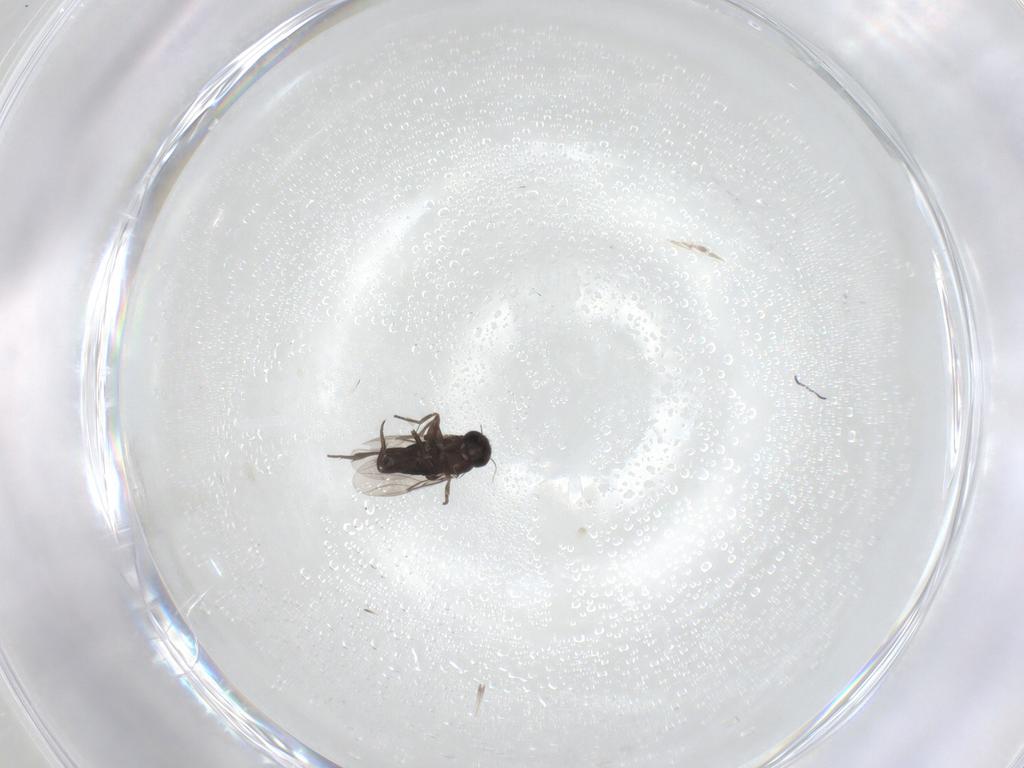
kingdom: Animalia
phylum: Arthropoda
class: Insecta
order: Diptera
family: Phoridae
